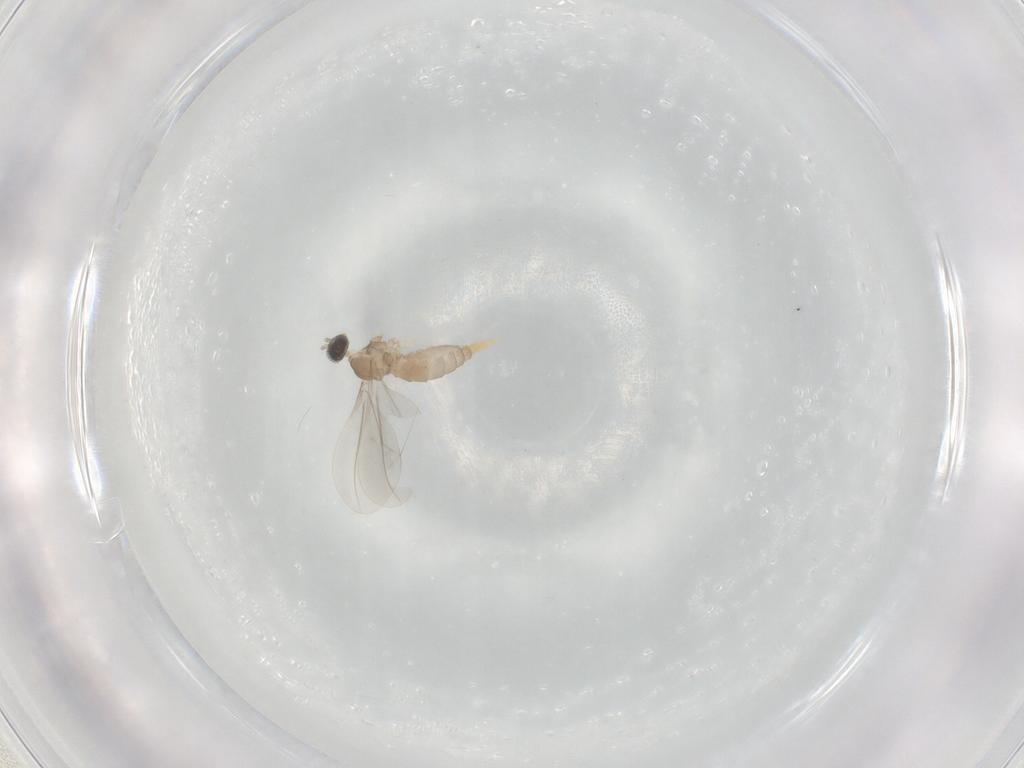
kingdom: Animalia
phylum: Arthropoda
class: Insecta
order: Diptera
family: Cecidomyiidae
